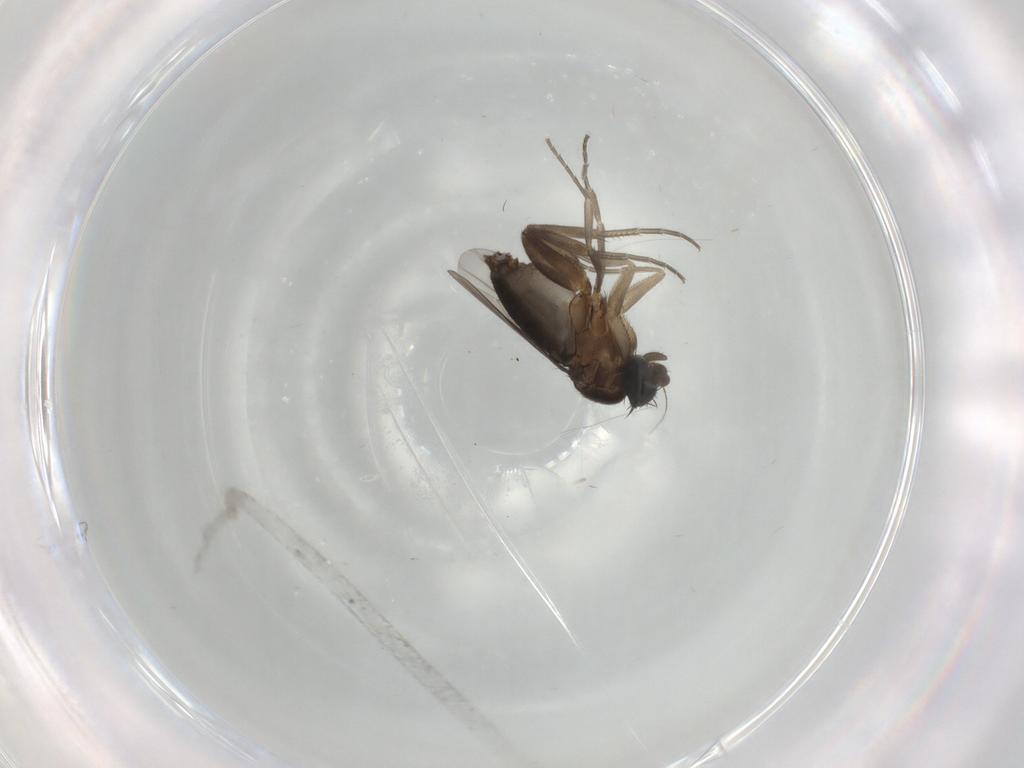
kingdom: Animalia
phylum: Arthropoda
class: Insecta
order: Diptera
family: Phoridae
